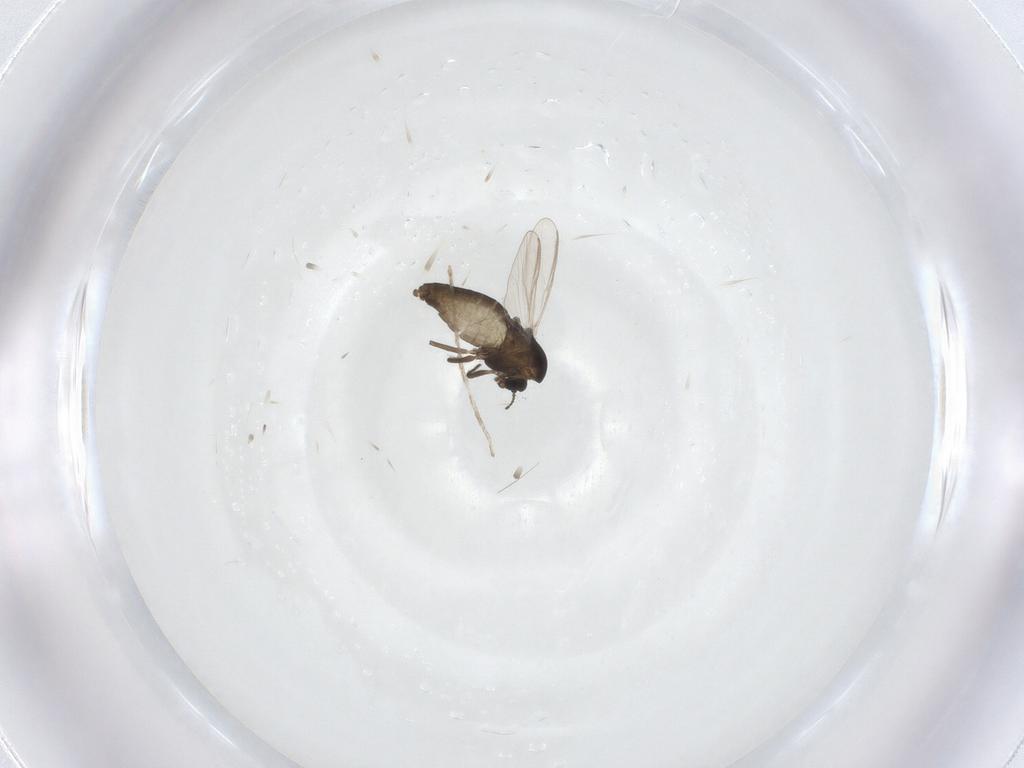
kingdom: Animalia
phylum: Arthropoda
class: Insecta
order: Diptera
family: Chironomidae
